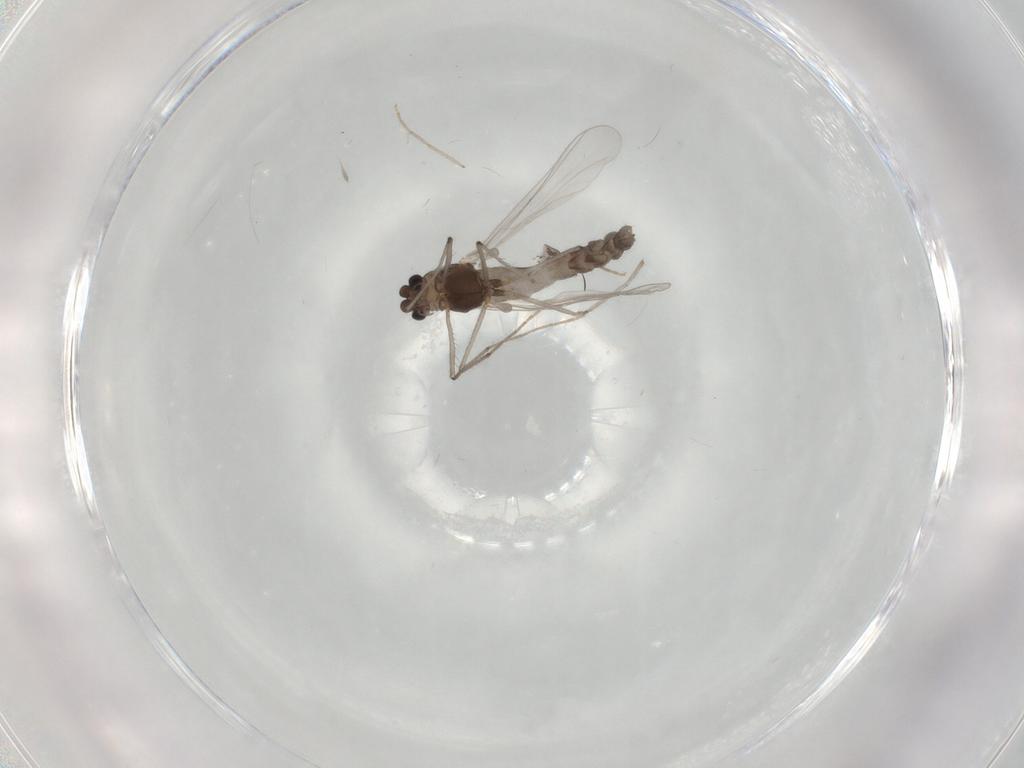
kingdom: Animalia
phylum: Arthropoda
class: Insecta
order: Diptera
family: Chironomidae
